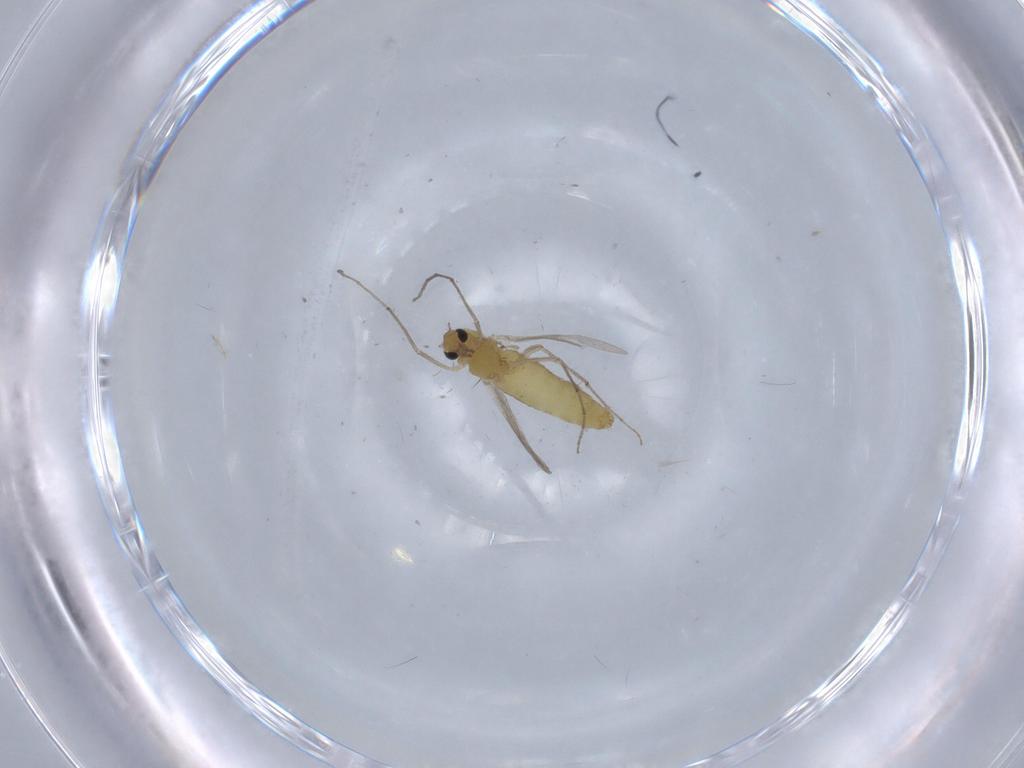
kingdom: Animalia
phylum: Arthropoda
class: Insecta
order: Diptera
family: Chironomidae
